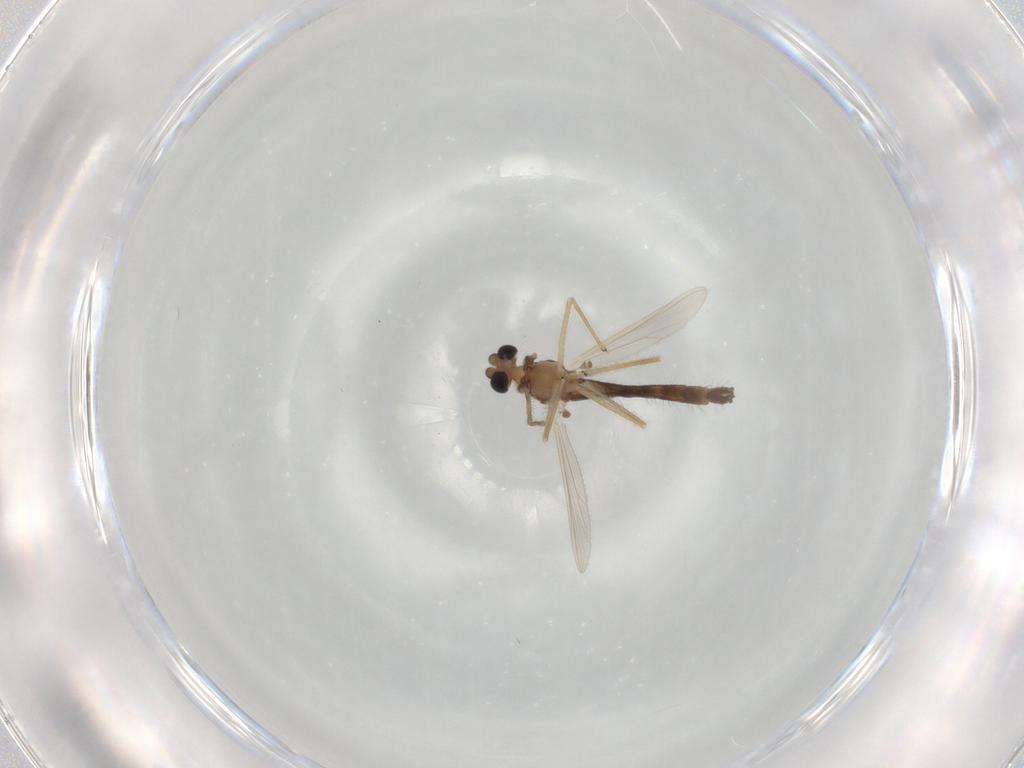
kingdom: Animalia
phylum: Arthropoda
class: Insecta
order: Diptera
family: Chironomidae
